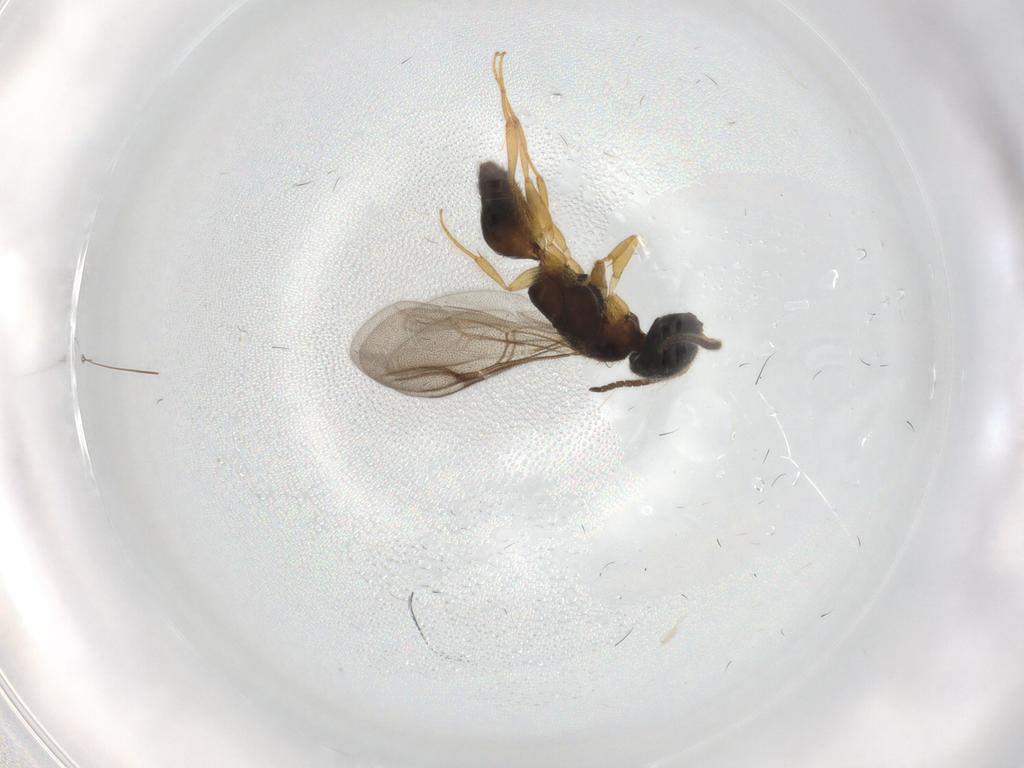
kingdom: Animalia
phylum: Arthropoda
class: Insecta
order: Hymenoptera
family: Bethylidae
